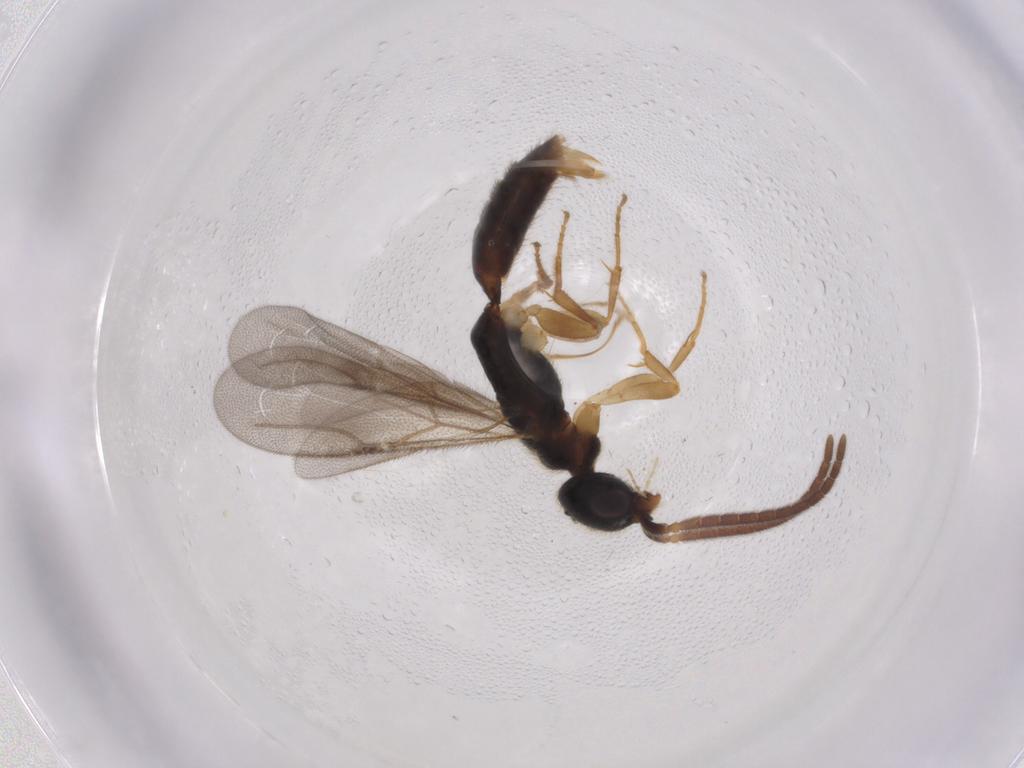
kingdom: Animalia
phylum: Arthropoda
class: Insecta
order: Hymenoptera
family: Bethylidae
